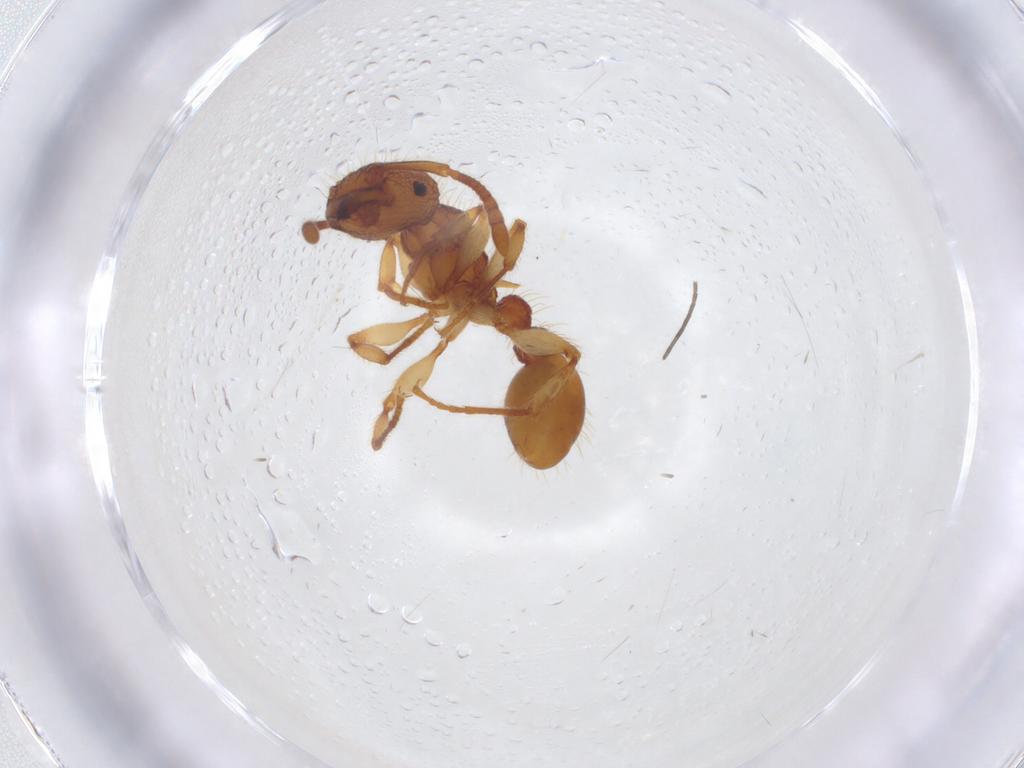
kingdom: Animalia
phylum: Arthropoda
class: Insecta
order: Hymenoptera
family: Formicidae
